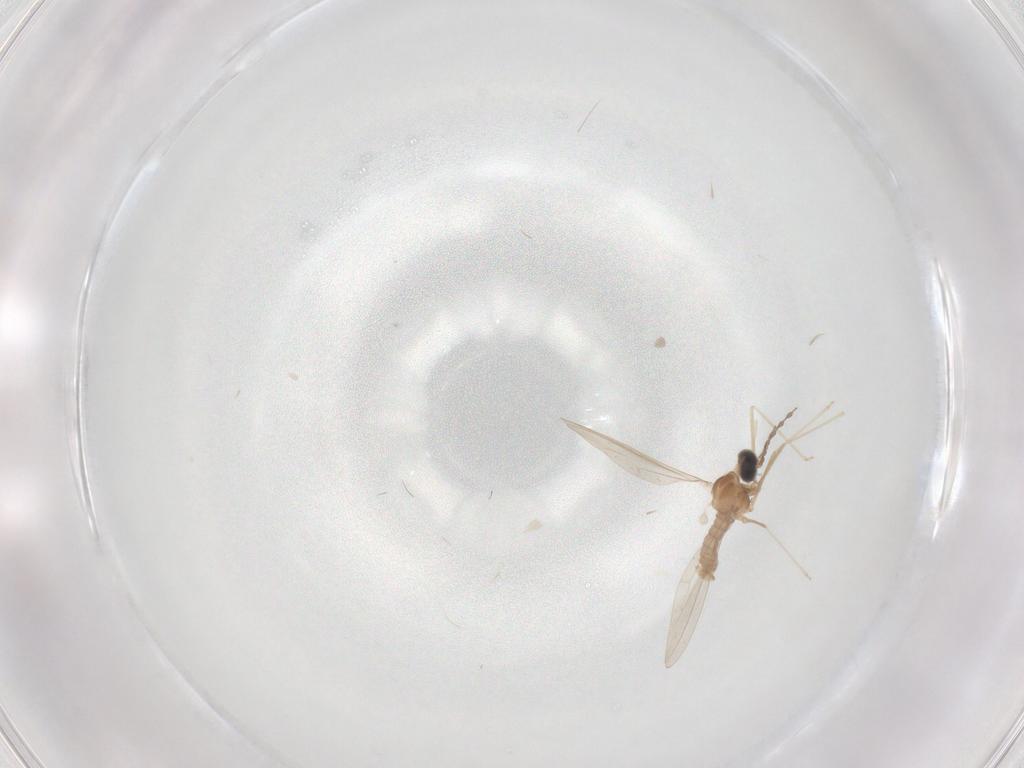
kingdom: Animalia
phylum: Arthropoda
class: Insecta
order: Diptera
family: Cecidomyiidae
